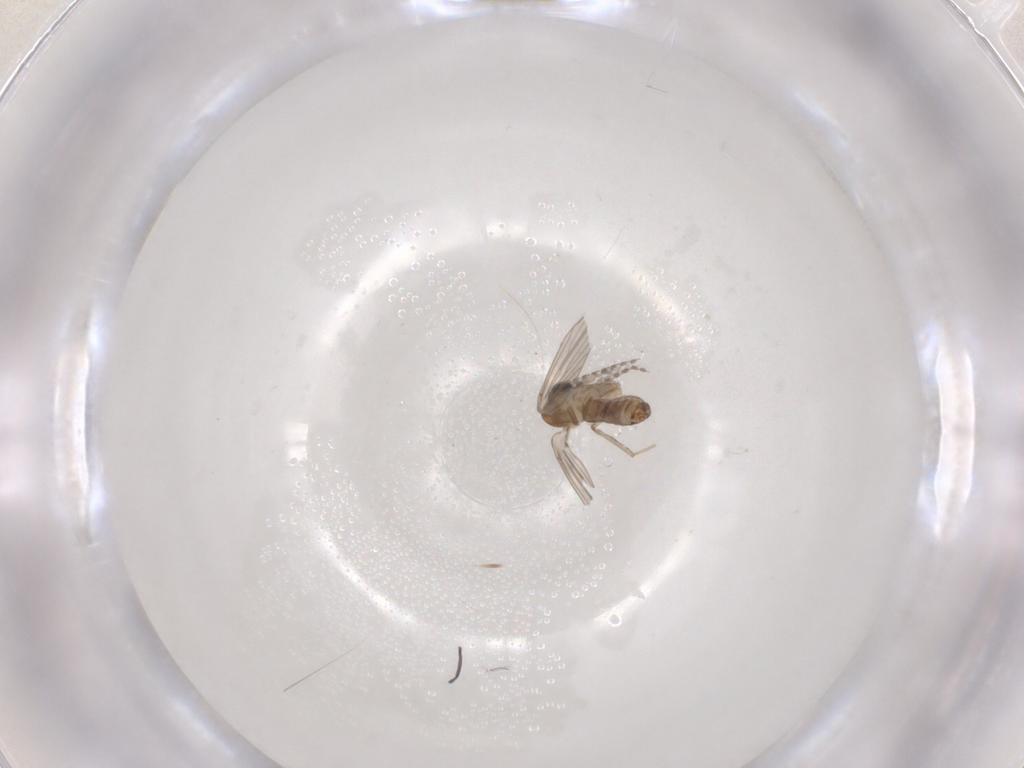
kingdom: Animalia
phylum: Arthropoda
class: Insecta
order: Diptera
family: Psychodidae
